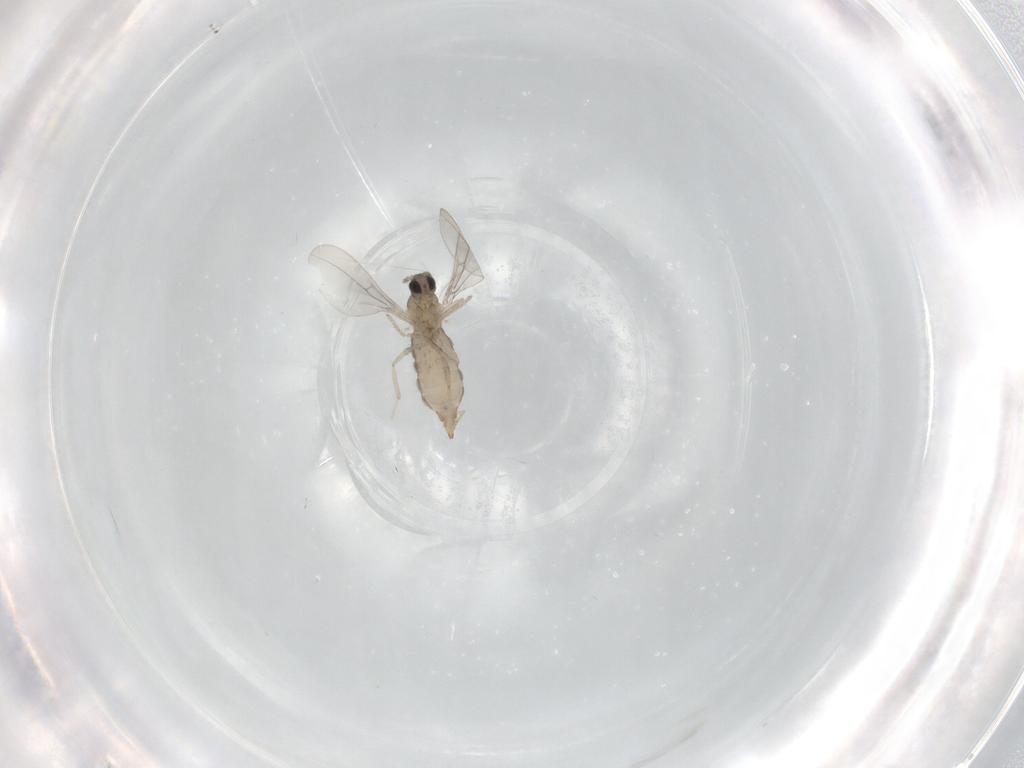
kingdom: Animalia
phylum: Arthropoda
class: Insecta
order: Diptera
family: Cecidomyiidae
